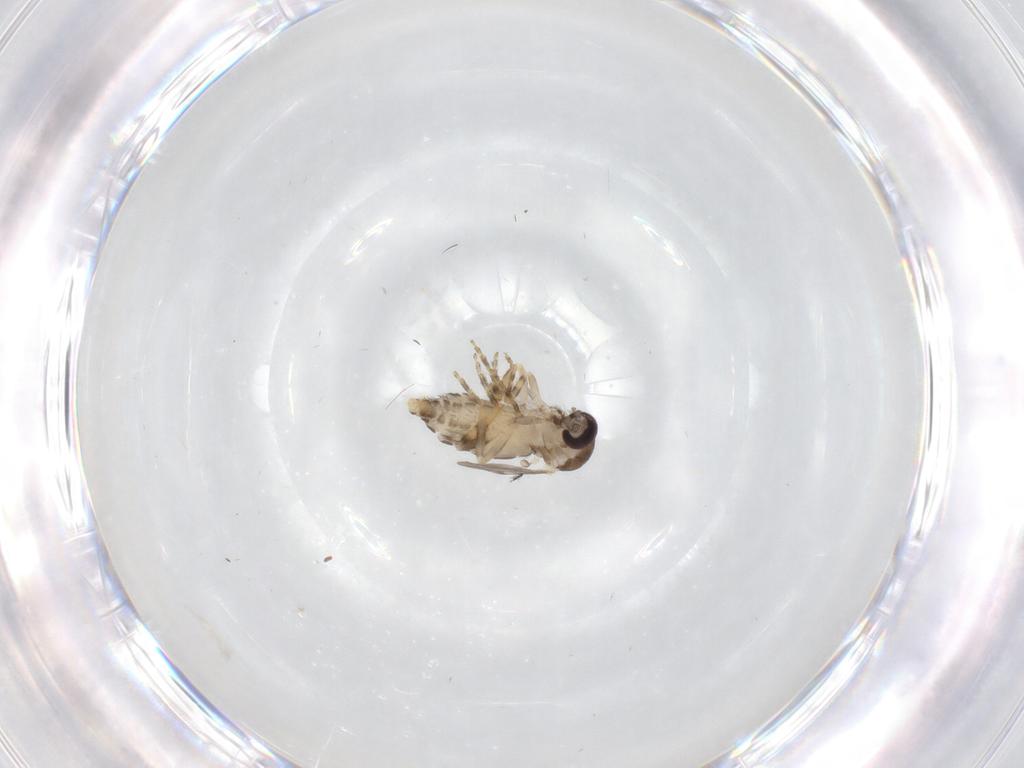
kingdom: Animalia
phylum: Arthropoda
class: Insecta
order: Diptera
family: Ceratopogonidae
